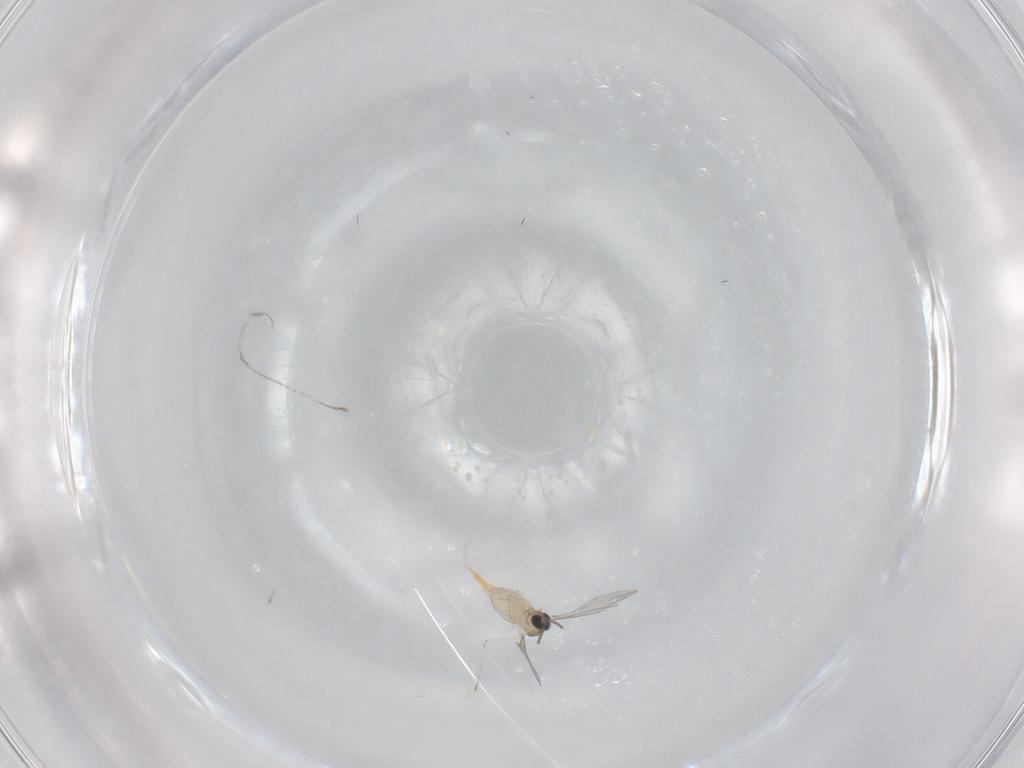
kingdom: Animalia
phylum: Arthropoda
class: Insecta
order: Diptera
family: Cecidomyiidae
